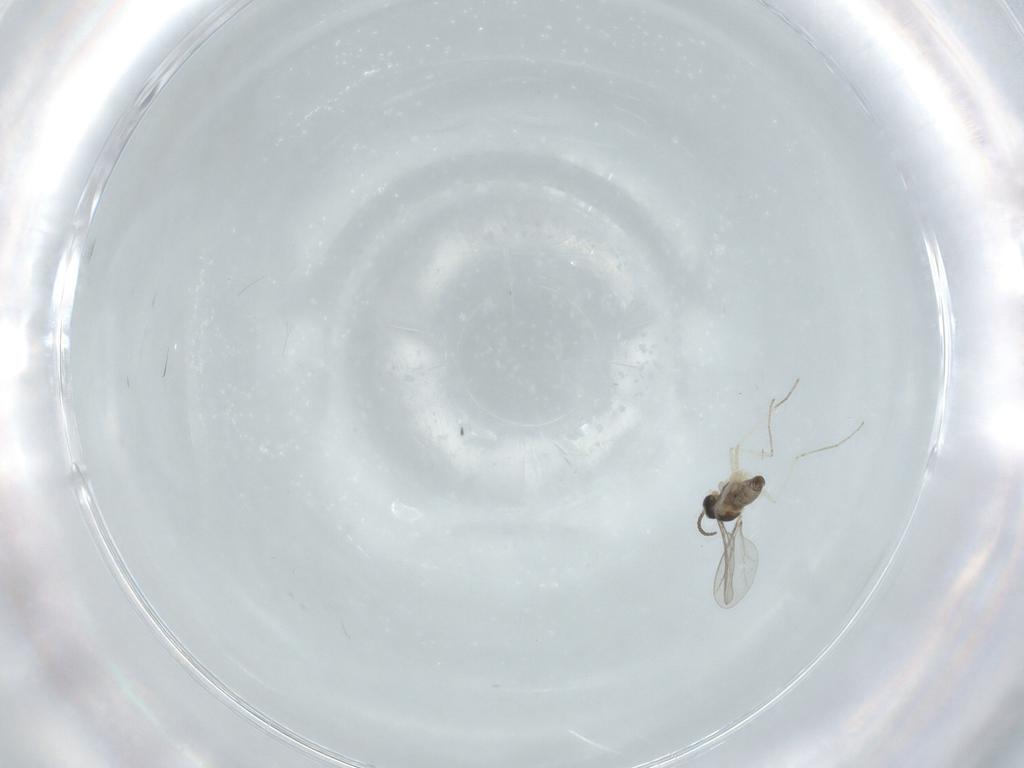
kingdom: Animalia
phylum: Arthropoda
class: Insecta
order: Diptera
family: Cecidomyiidae
